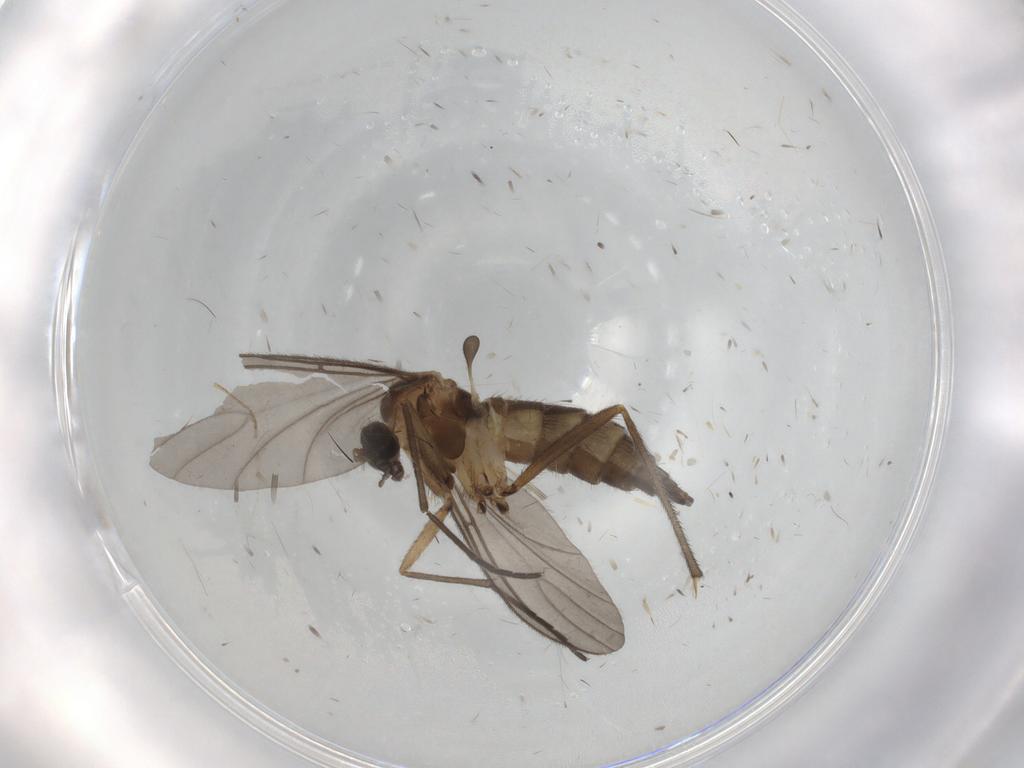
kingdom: Animalia
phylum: Arthropoda
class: Insecta
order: Diptera
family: Sciaridae
